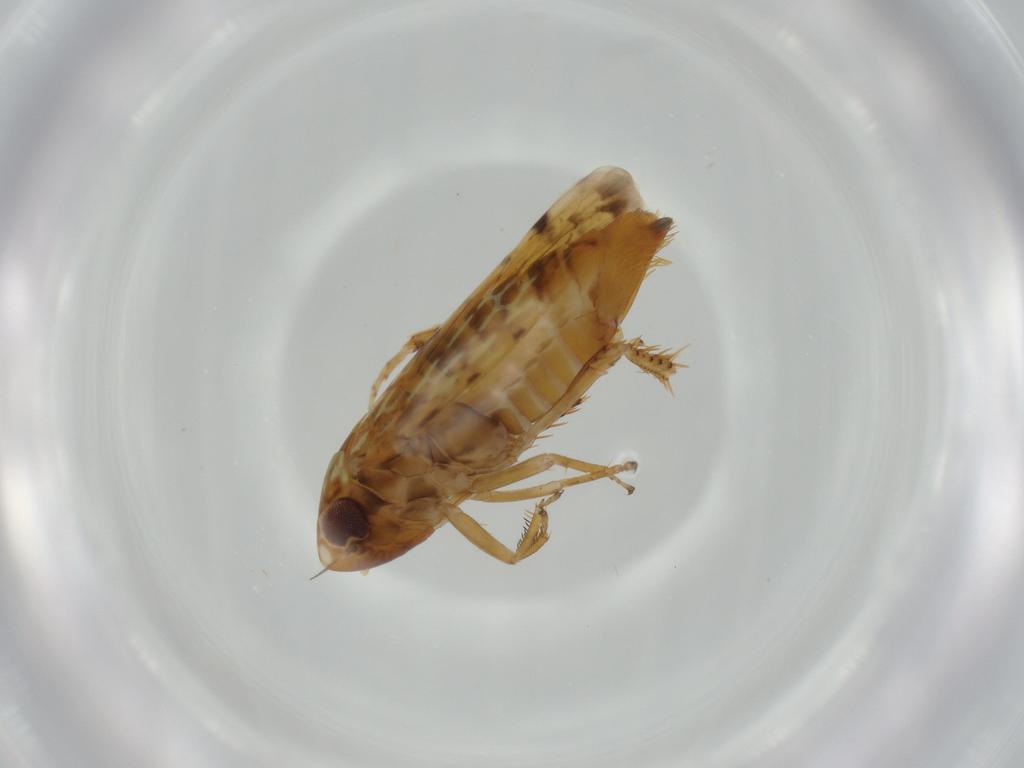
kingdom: Animalia
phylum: Arthropoda
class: Insecta
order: Hemiptera
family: Cicadellidae
